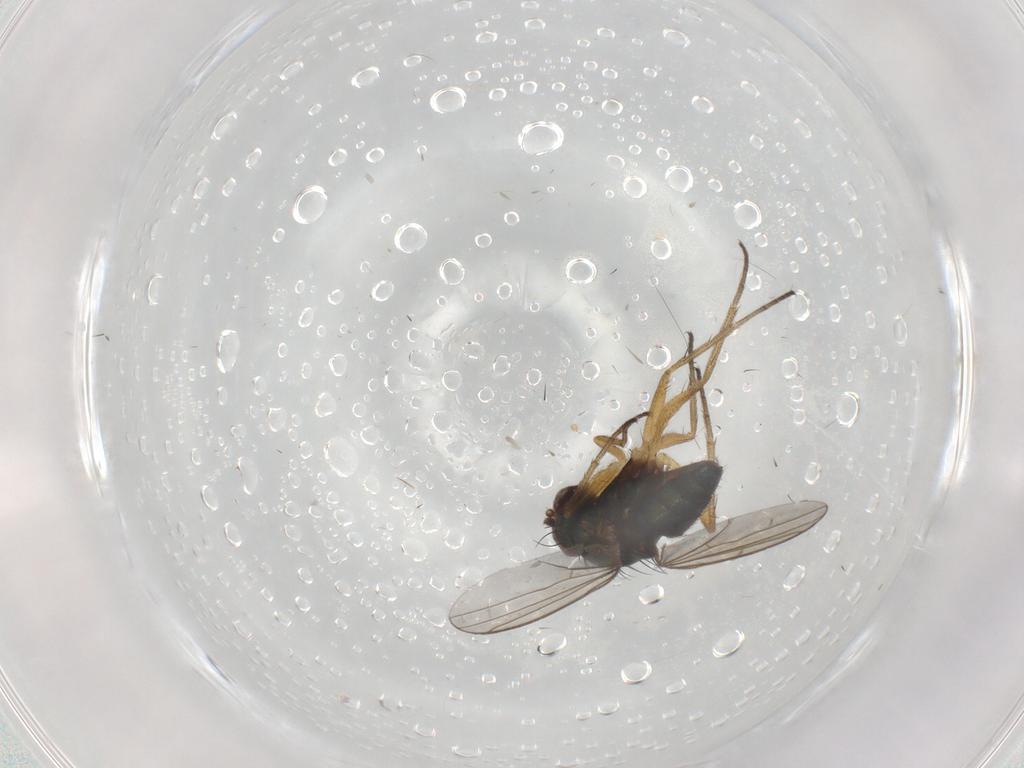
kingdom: Animalia
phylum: Arthropoda
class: Insecta
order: Diptera
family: Dolichopodidae
